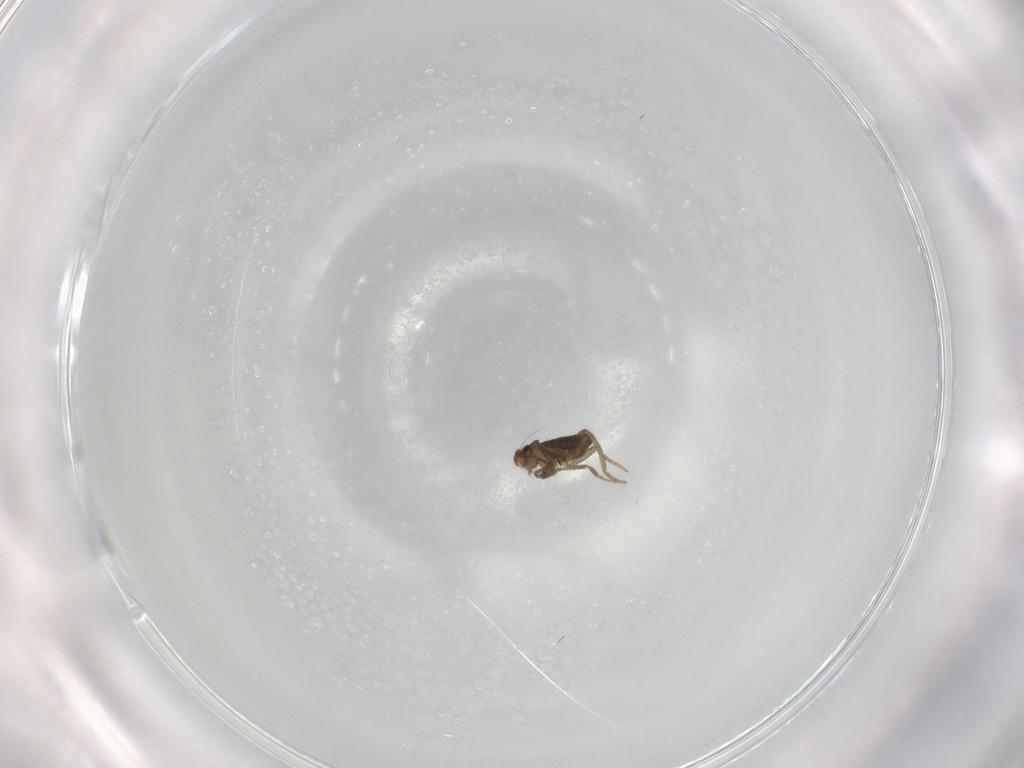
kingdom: Animalia
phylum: Arthropoda
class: Insecta
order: Diptera
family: Phoridae
